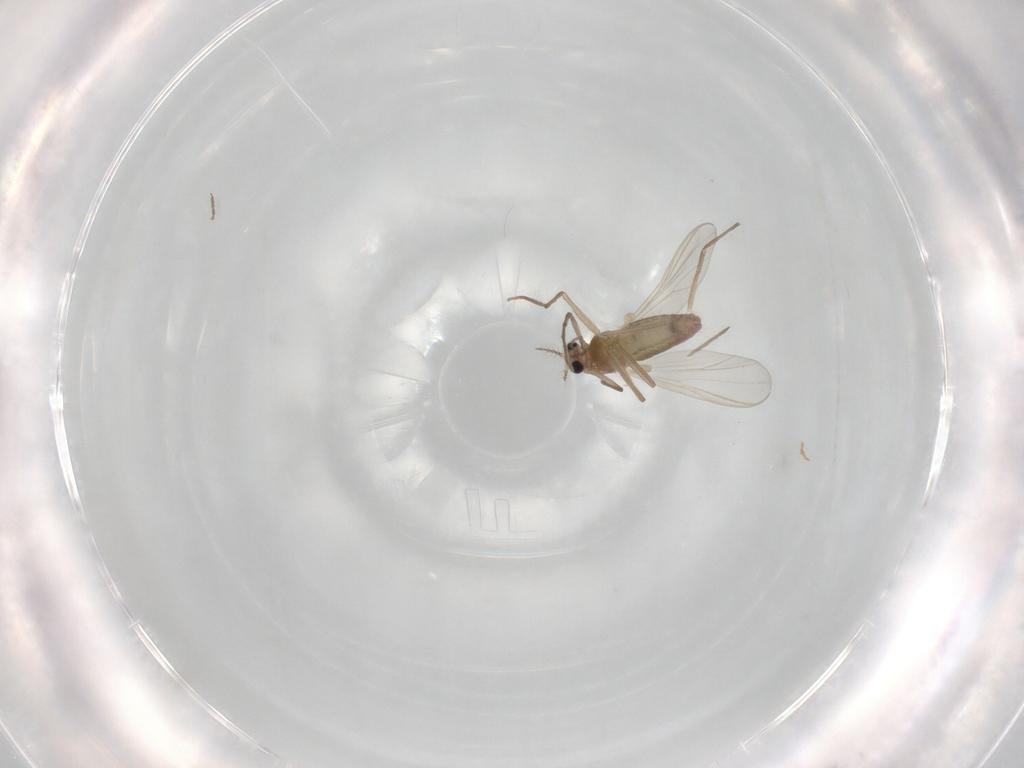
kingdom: Animalia
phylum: Arthropoda
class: Insecta
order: Diptera
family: Chironomidae
